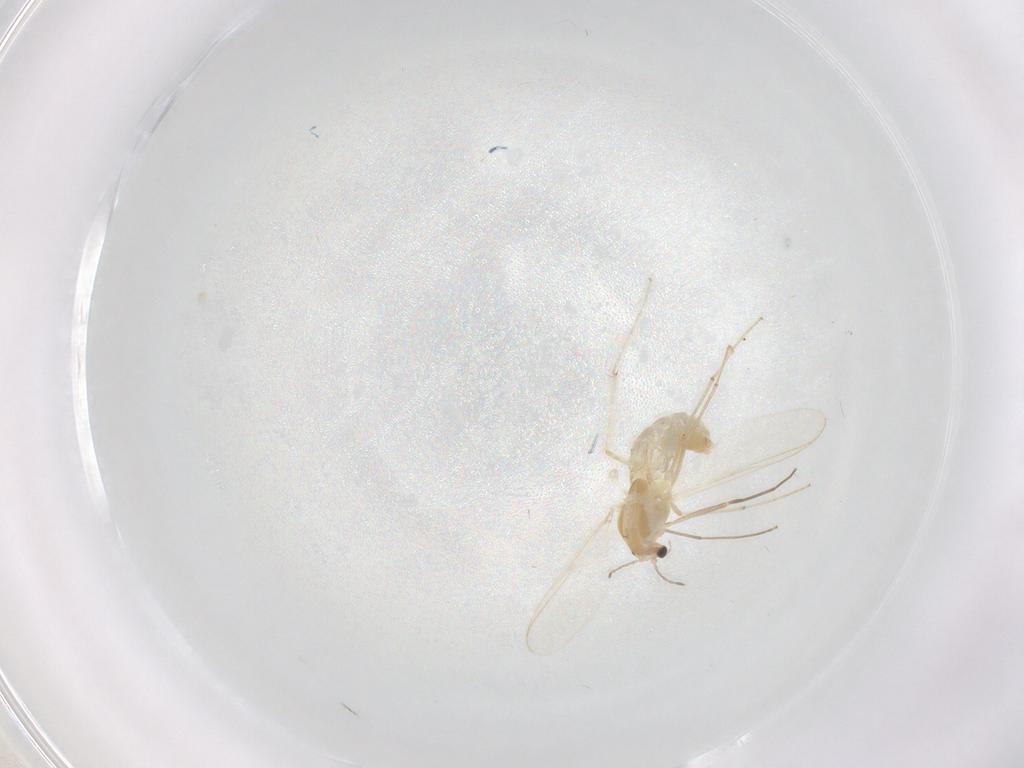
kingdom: Animalia
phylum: Arthropoda
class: Insecta
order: Diptera
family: Chironomidae
